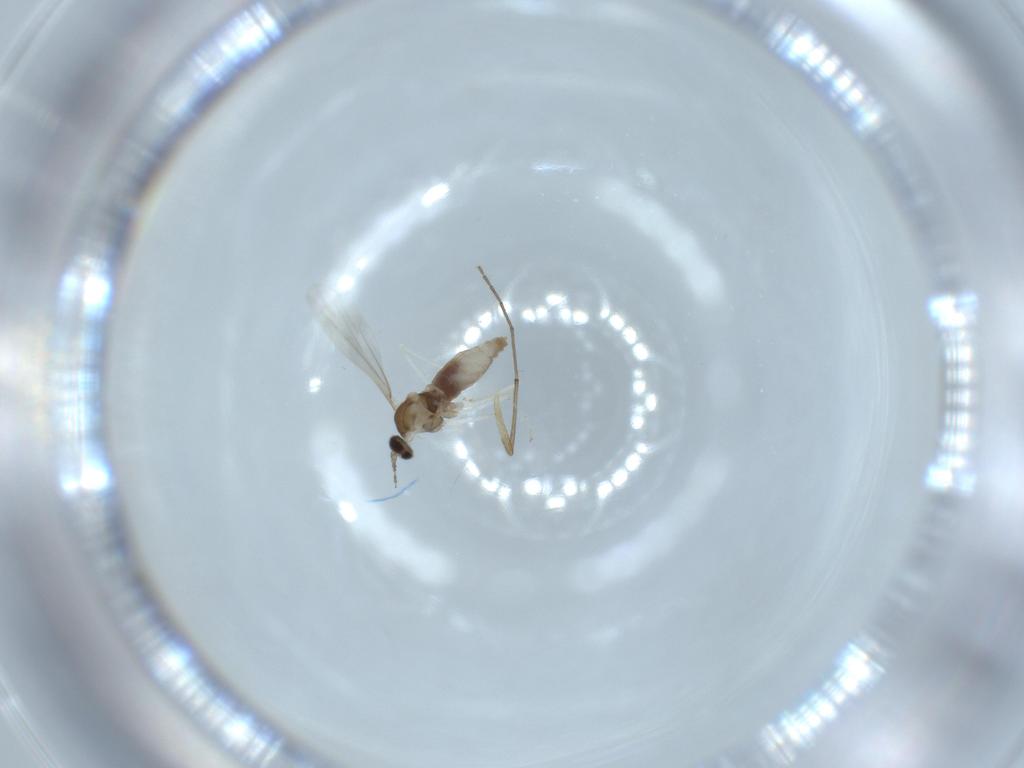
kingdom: Animalia
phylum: Arthropoda
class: Insecta
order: Diptera
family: Cecidomyiidae
